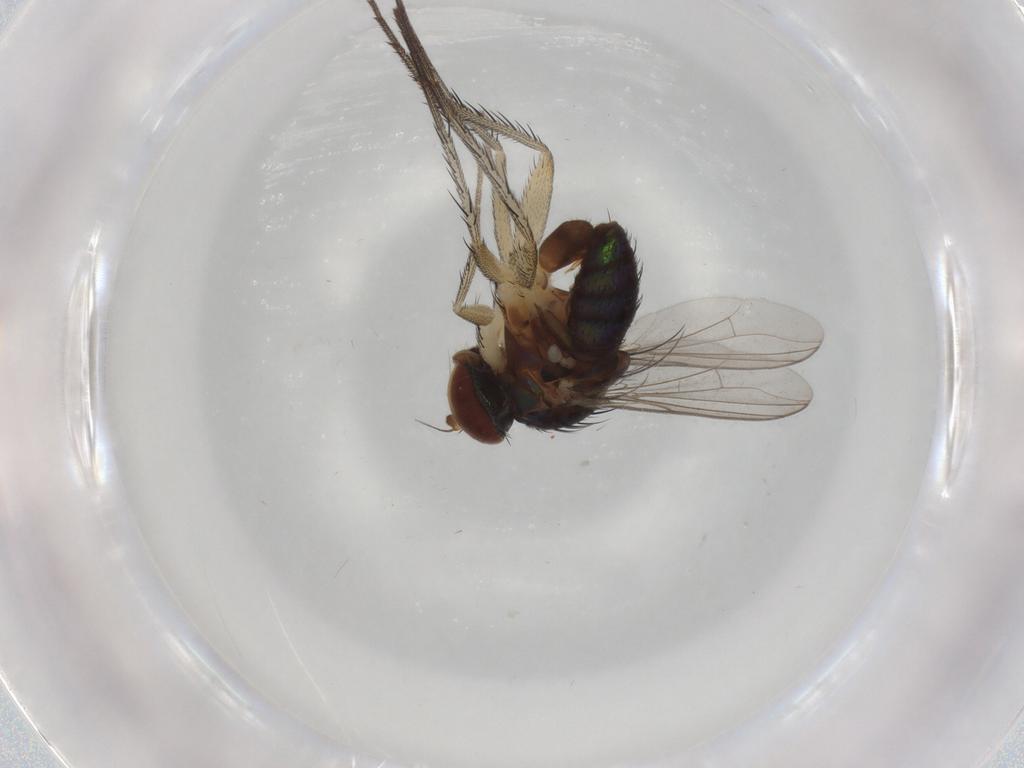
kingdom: Animalia
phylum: Arthropoda
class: Insecta
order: Diptera
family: Dolichopodidae
